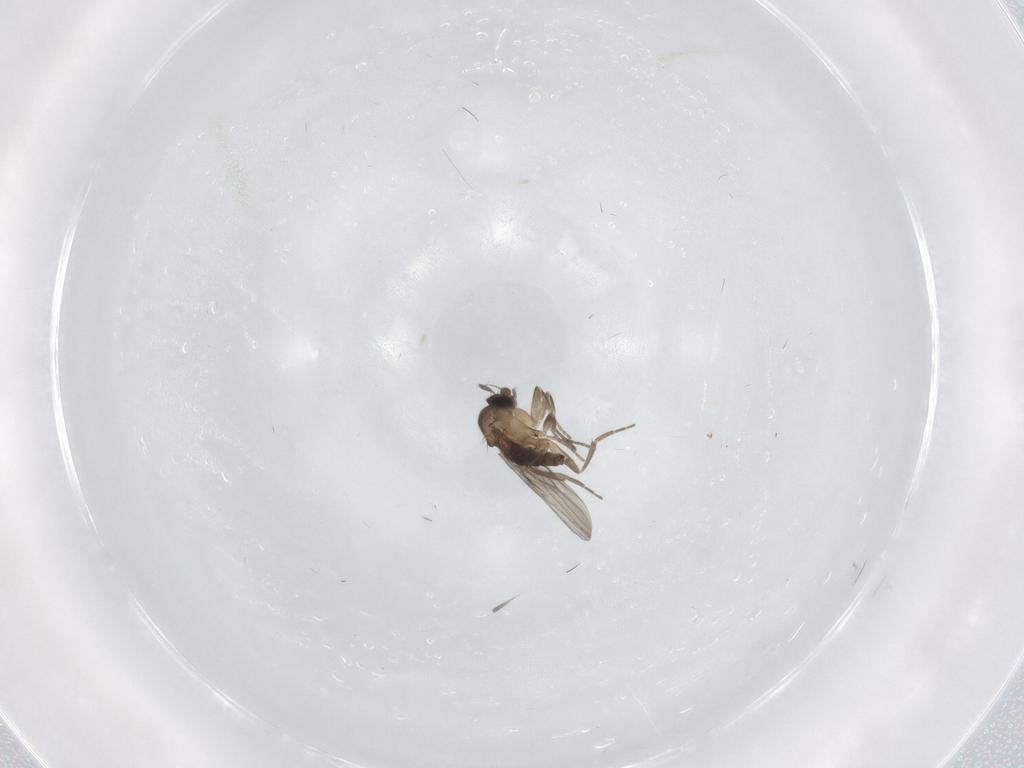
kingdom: Animalia
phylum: Arthropoda
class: Insecta
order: Diptera
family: Phoridae
